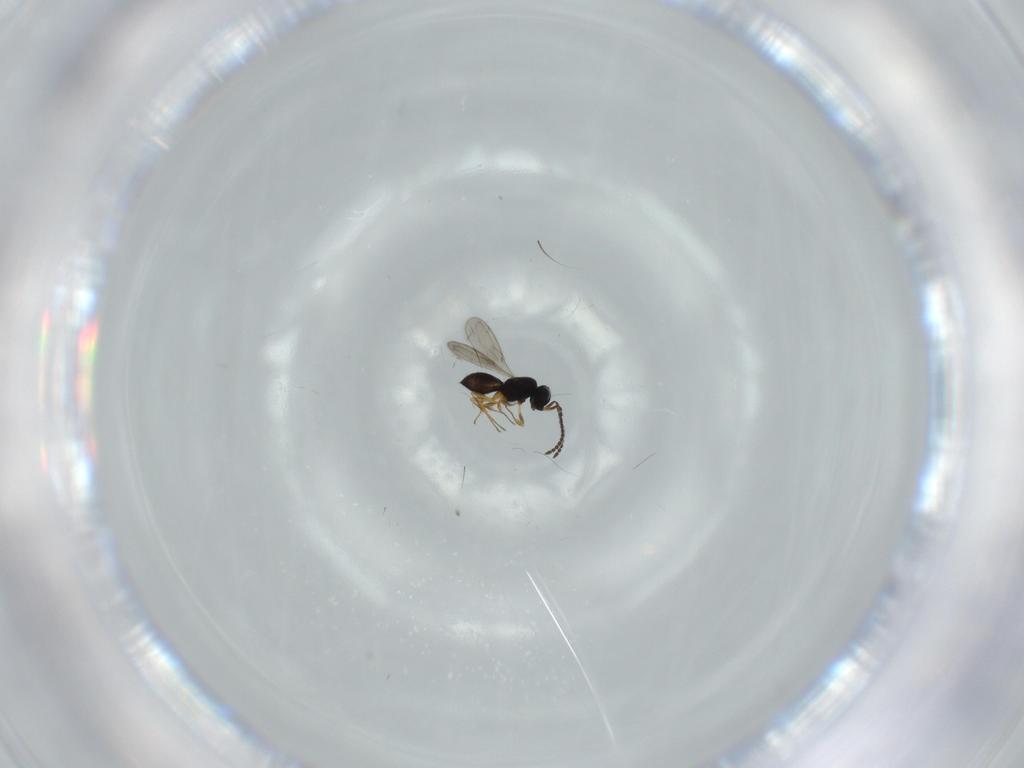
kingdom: Animalia
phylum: Arthropoda
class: Insecta
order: Hymenoptera
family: Scelionidae
